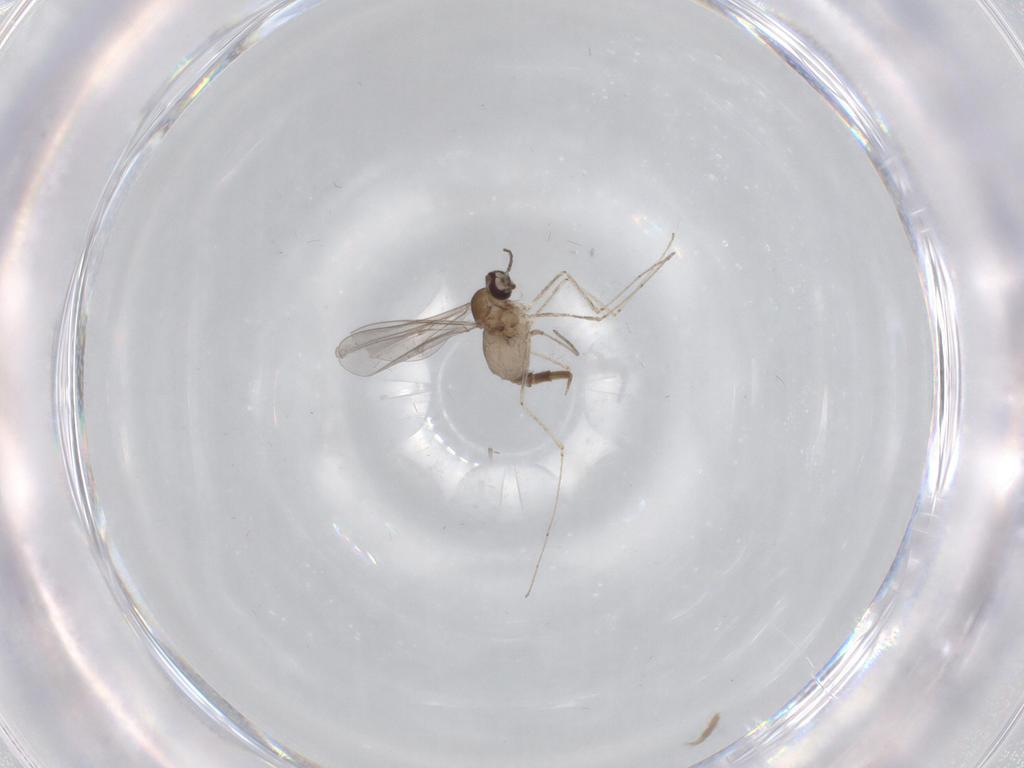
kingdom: Animalia
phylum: Arthropoda
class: Insecta
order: Diptera
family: Cecidomyiidae
